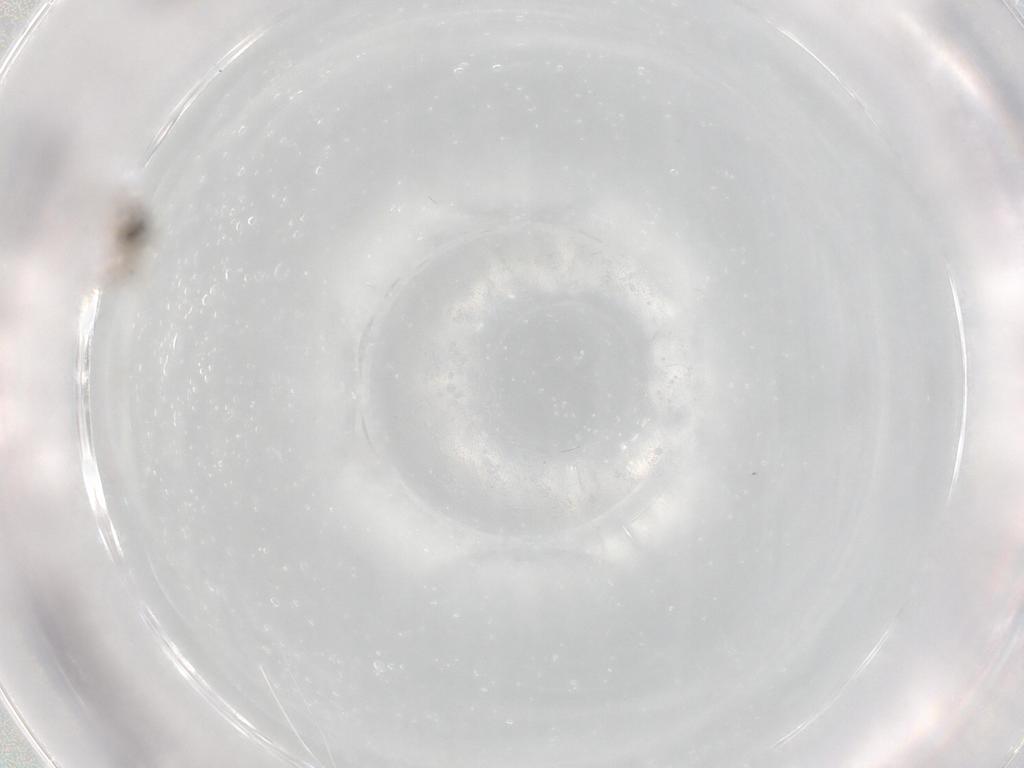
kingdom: Animalia
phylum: Arthropoda
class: Insecta
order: Diptera
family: Phoridae
